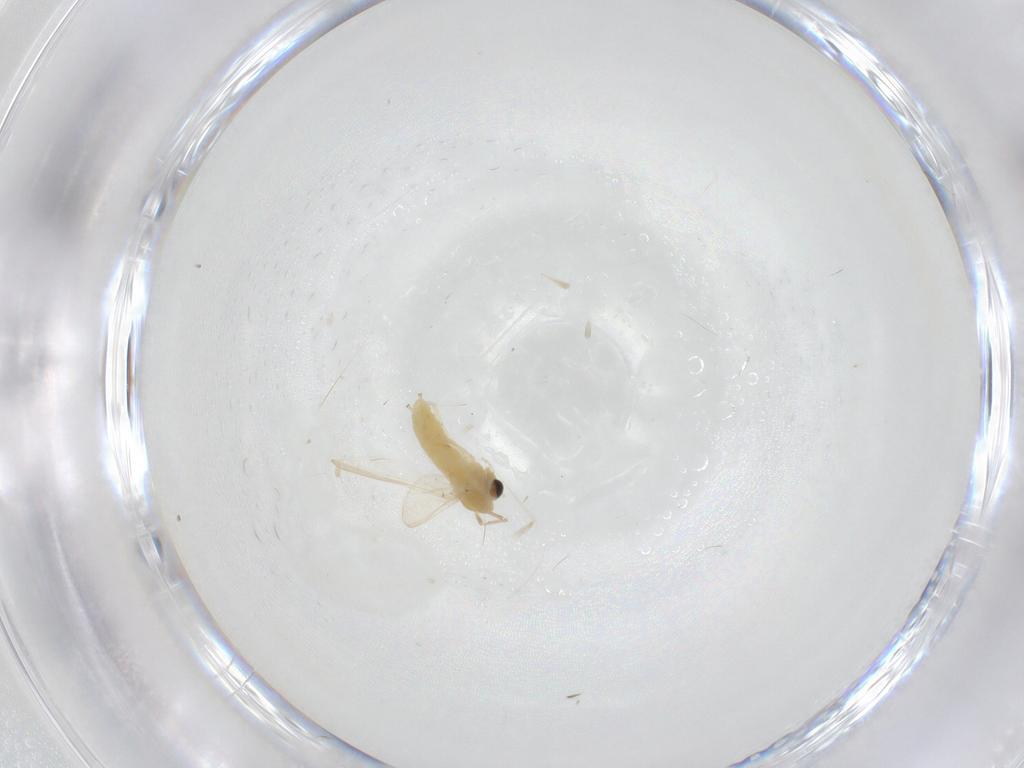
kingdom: Animalia
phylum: Arthropoda
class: Insecta
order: Diptera
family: Chironomidae
